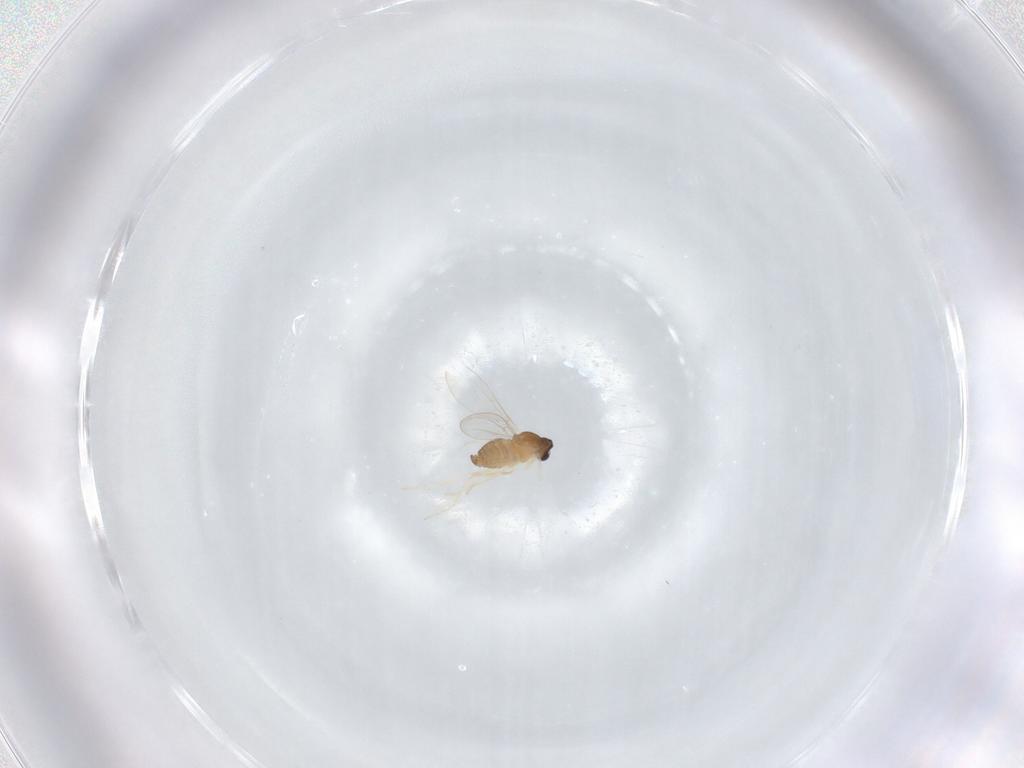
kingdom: Animalia
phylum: Arthropoda
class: Insecta
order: Diptera
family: Cecidomyiidae
